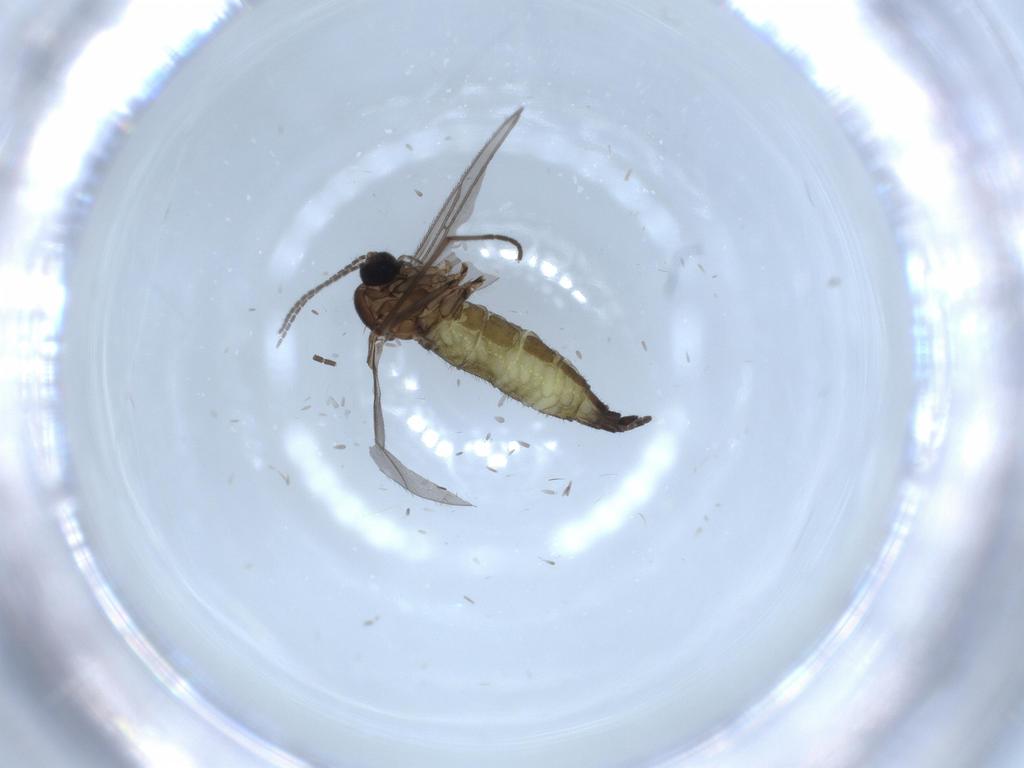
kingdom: Animalia
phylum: Arthropoda
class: Insecta
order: Diptera
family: Sciaridae
